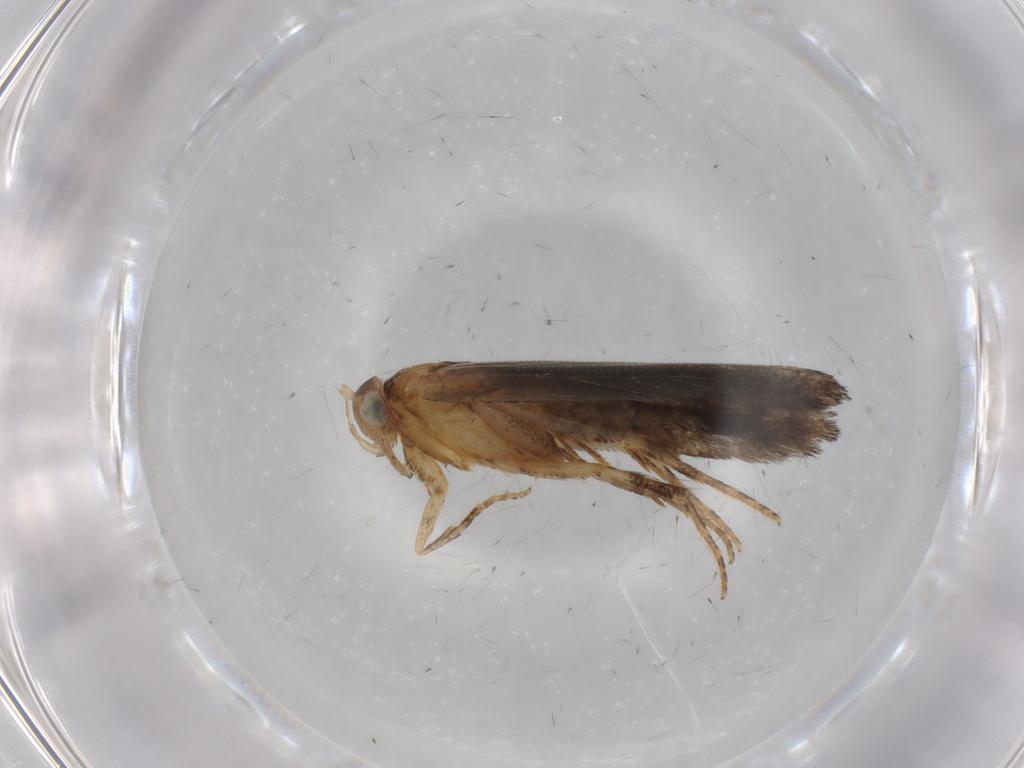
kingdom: Animalia
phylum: Arthropoda
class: Insecta
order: Lepidoptera
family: Gelechiidae
